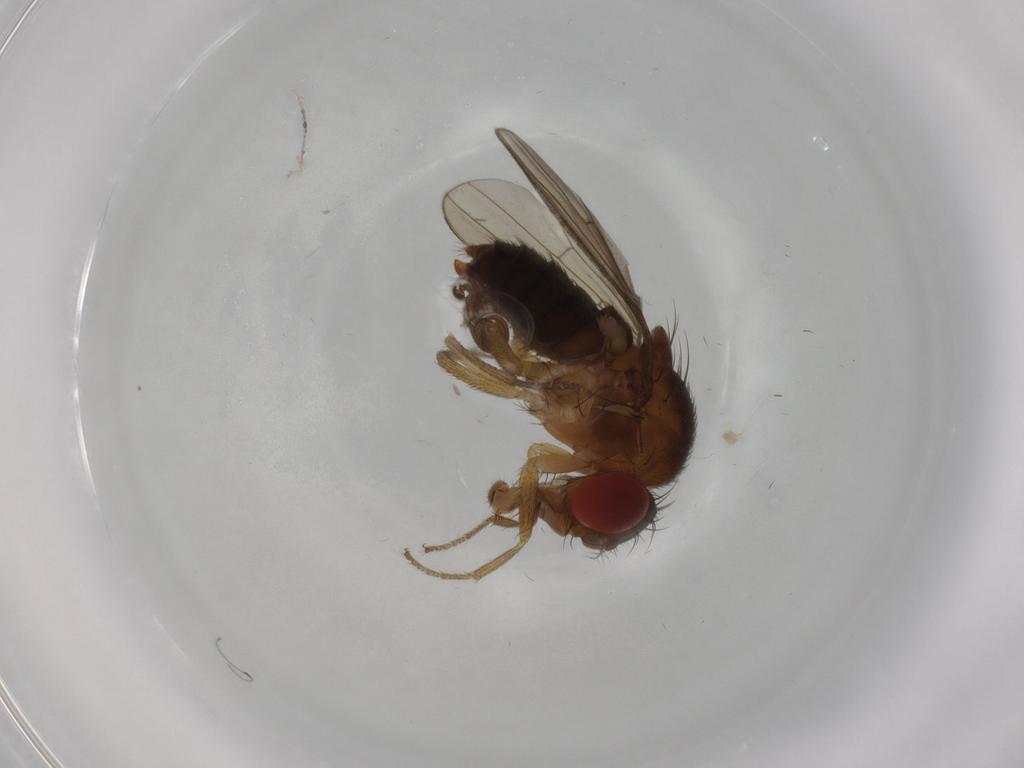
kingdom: Animalia
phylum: Arthropoda
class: Insecta
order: Diptera
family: Drosophilidae
